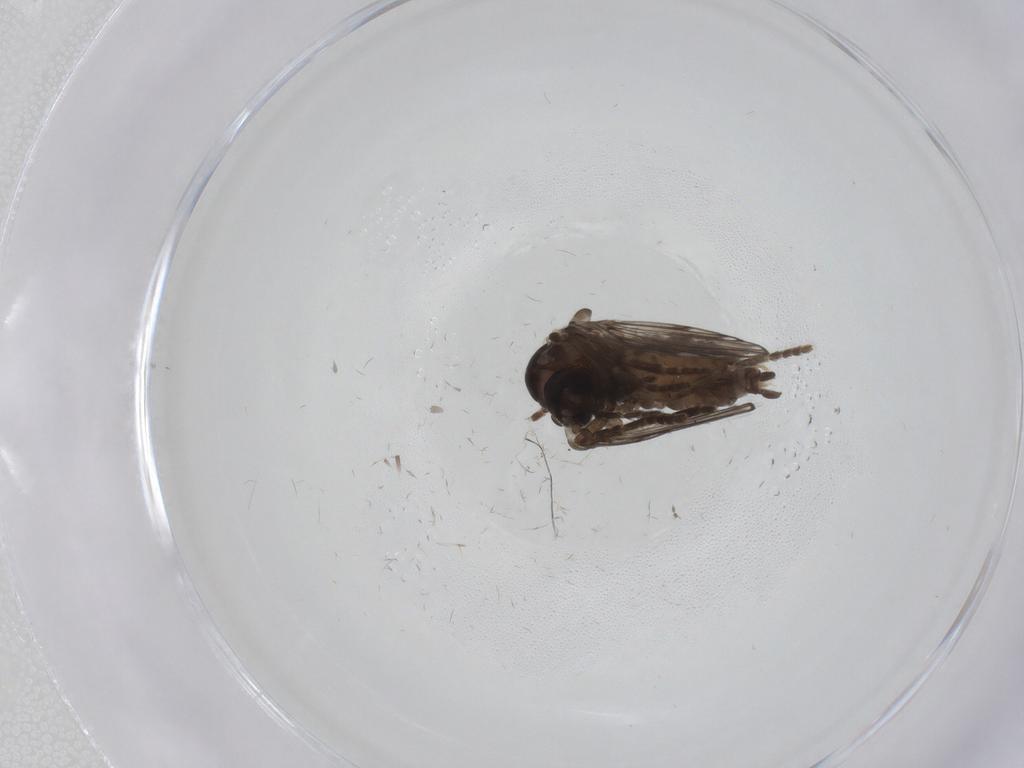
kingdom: Animalia
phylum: Arthropoda
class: Insecta
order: Diptera
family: Psychodidae
